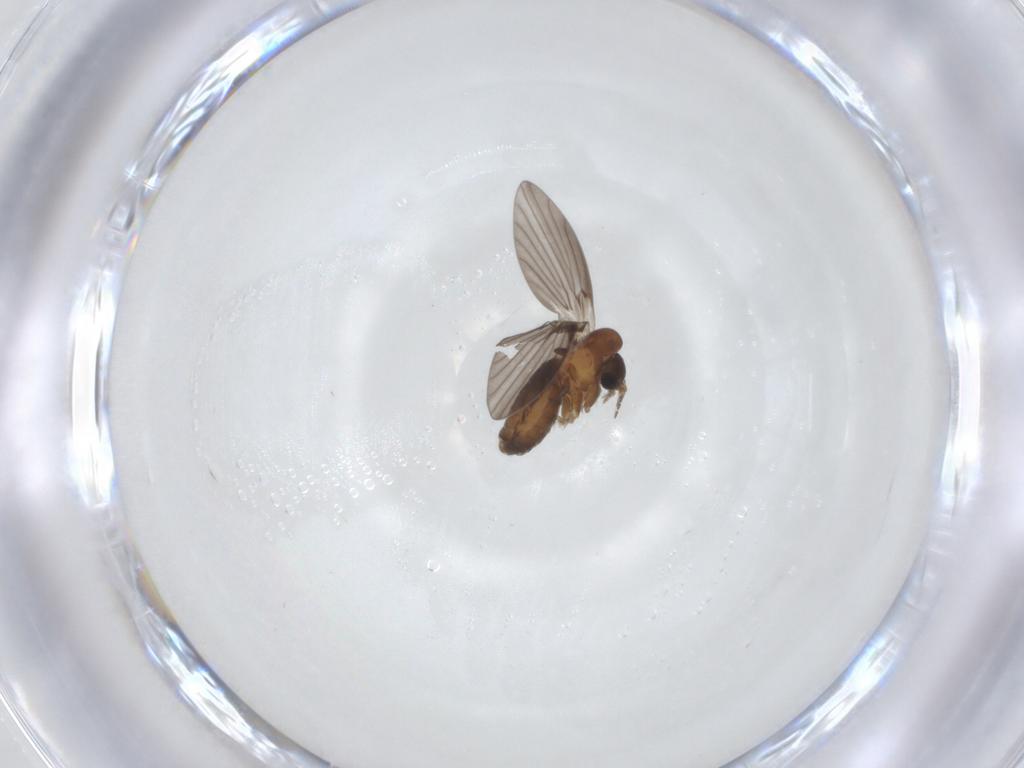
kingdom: Animalia
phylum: Arthropoda
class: Insecta
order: Diptera
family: Psychodidae
